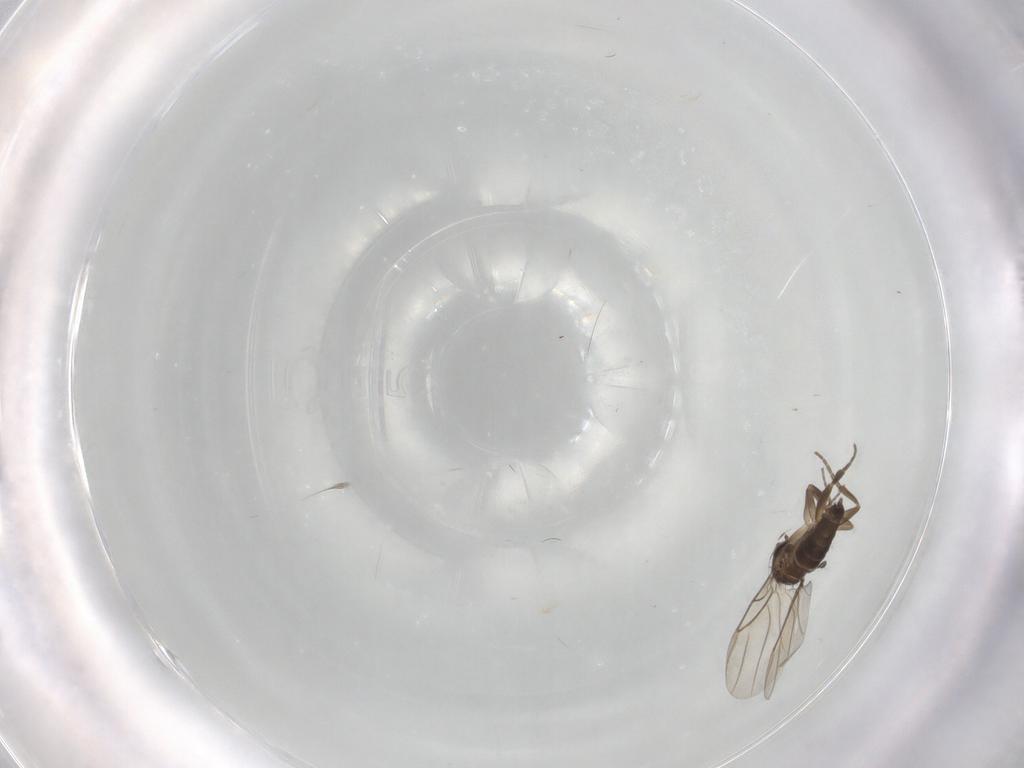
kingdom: Animalia
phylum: Arthropoda
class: Insecta
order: Diptera
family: Phoridae
